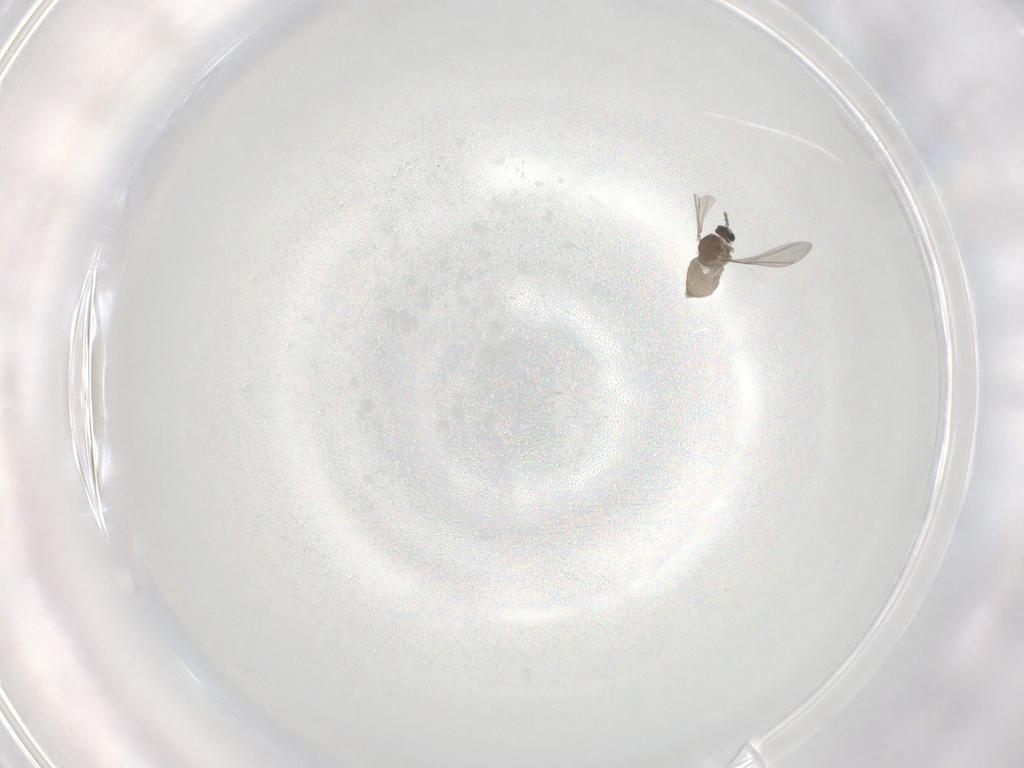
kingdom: Animalia
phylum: Arthropoda
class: Insecta
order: Diptera
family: Cecidomyiidae
